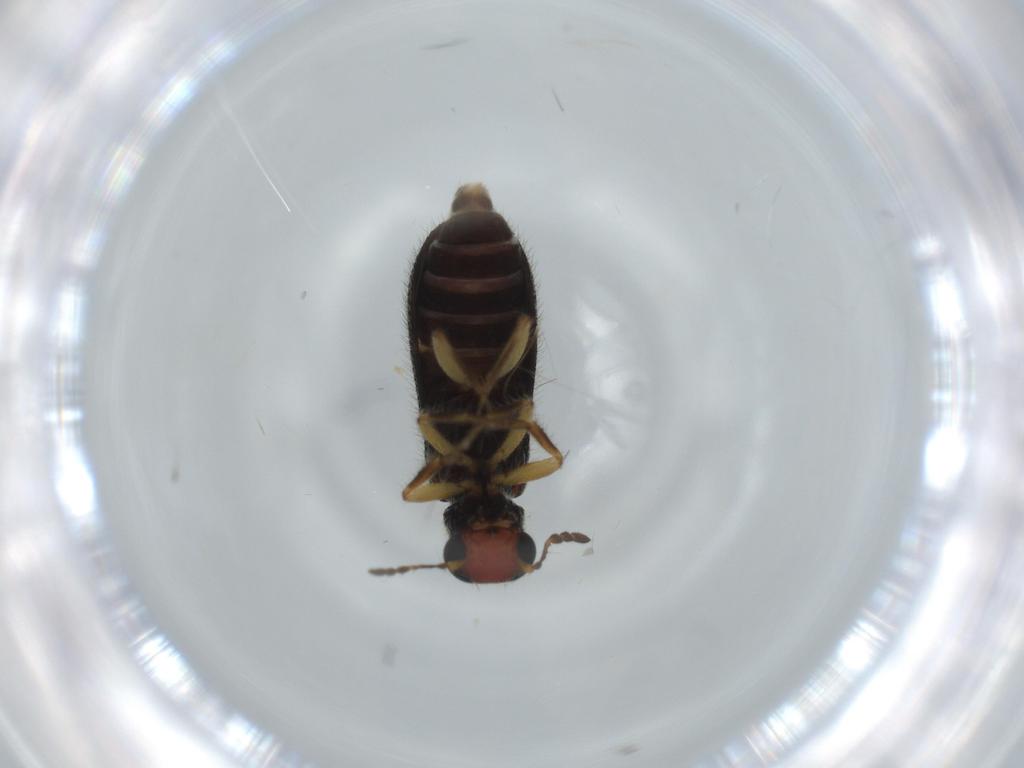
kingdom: Animalia
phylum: Arthropoda
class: Insecta
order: Coleoptera
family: Cleridae
